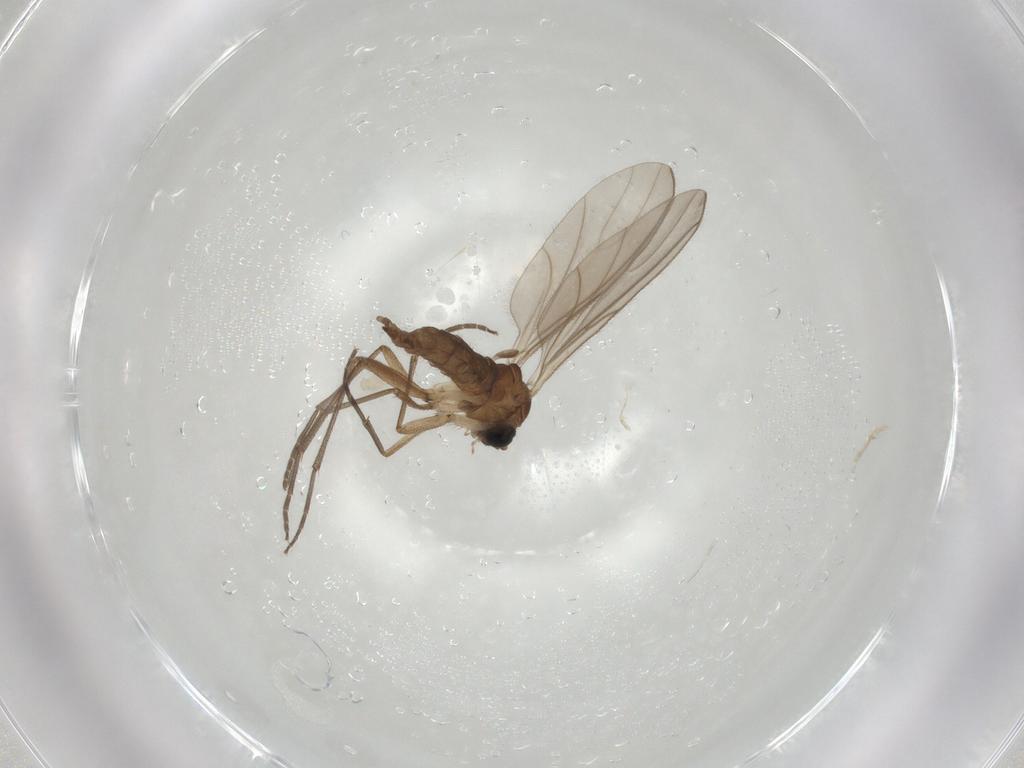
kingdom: Animalia
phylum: Arthropoda
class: Insecta
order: Diptera
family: Sciaridae
